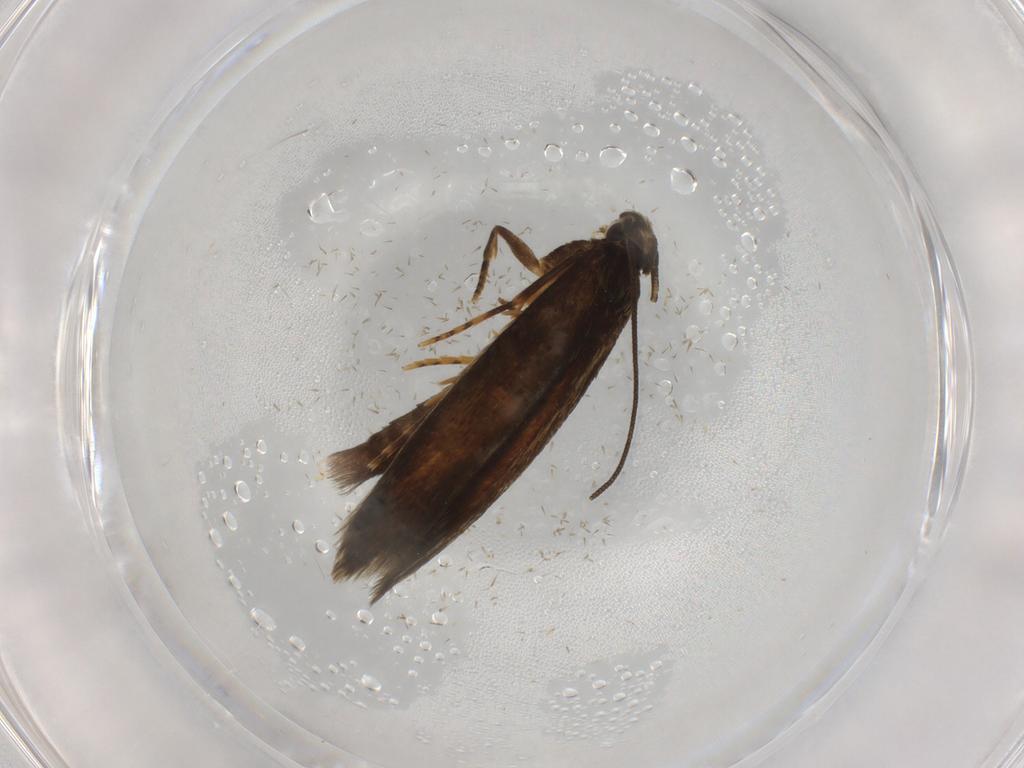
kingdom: Animalia
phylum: Arthropoda
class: Insecta
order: Lepidoptera
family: Tineidae
